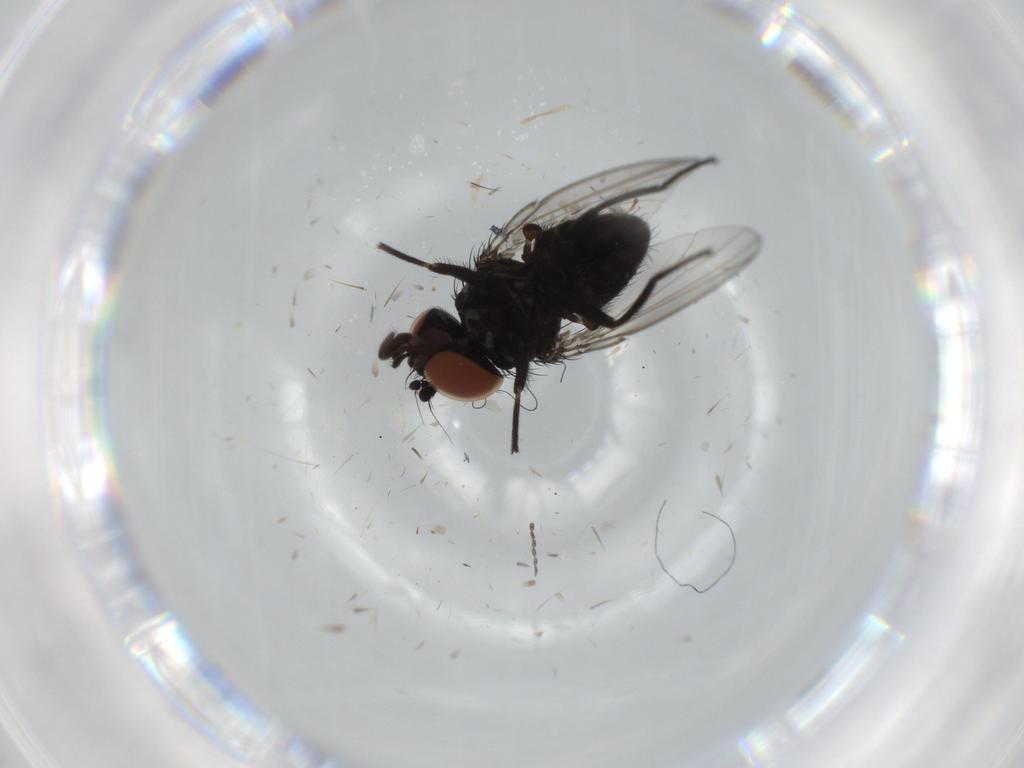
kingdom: Animalia
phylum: Arthropoda
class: Insecta
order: Diptera
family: Milichiidae
